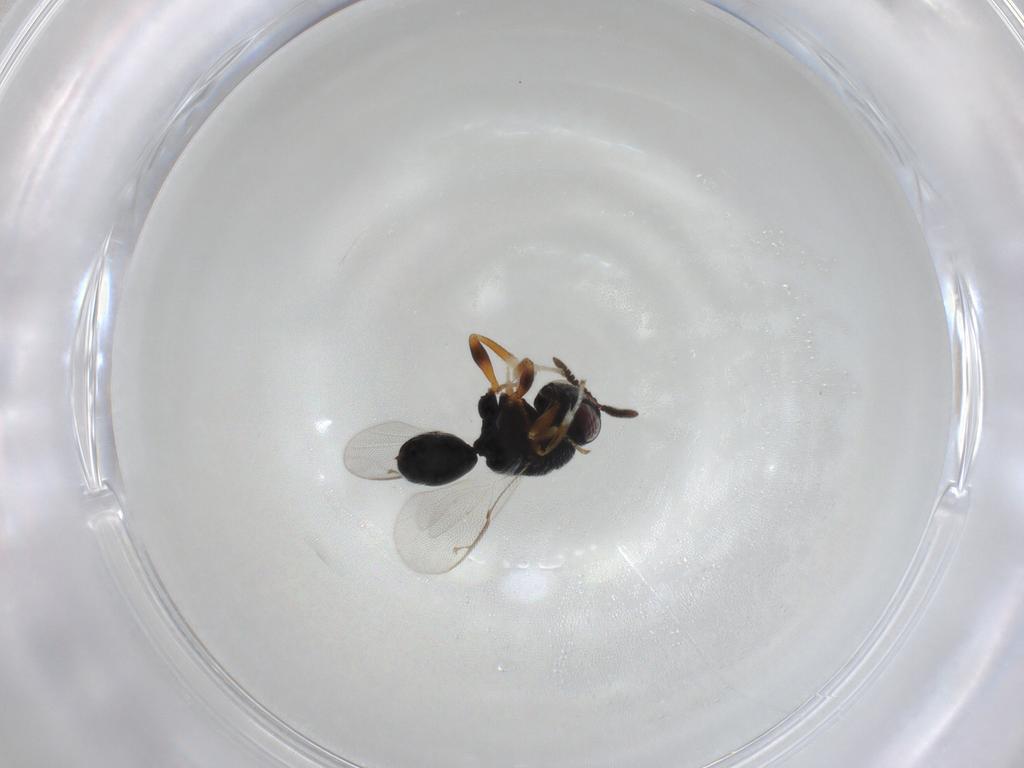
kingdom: Animalia
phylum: Arthropoda
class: Insecta
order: Hymenoptera
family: Eurytomidae
